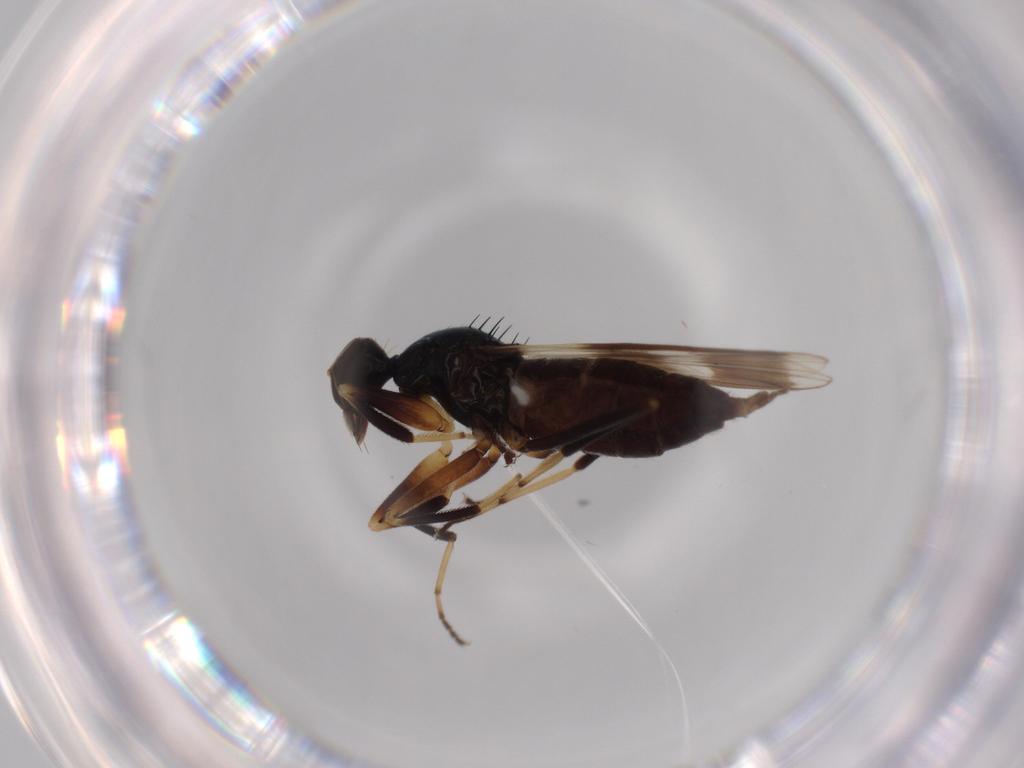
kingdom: Animalia
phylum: Arthropoda
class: Insecta
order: Diptera
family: Hybotidae
